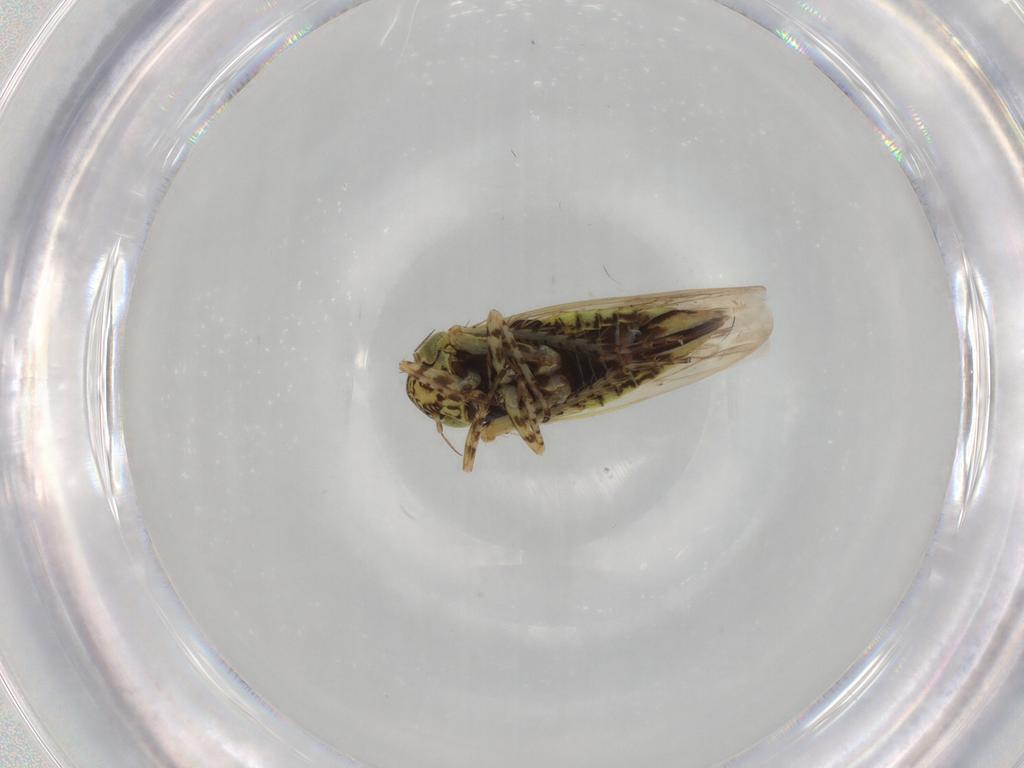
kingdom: Animalia
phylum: Arthropoda
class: Insecta
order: Hemiptera
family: Cicadellidae
